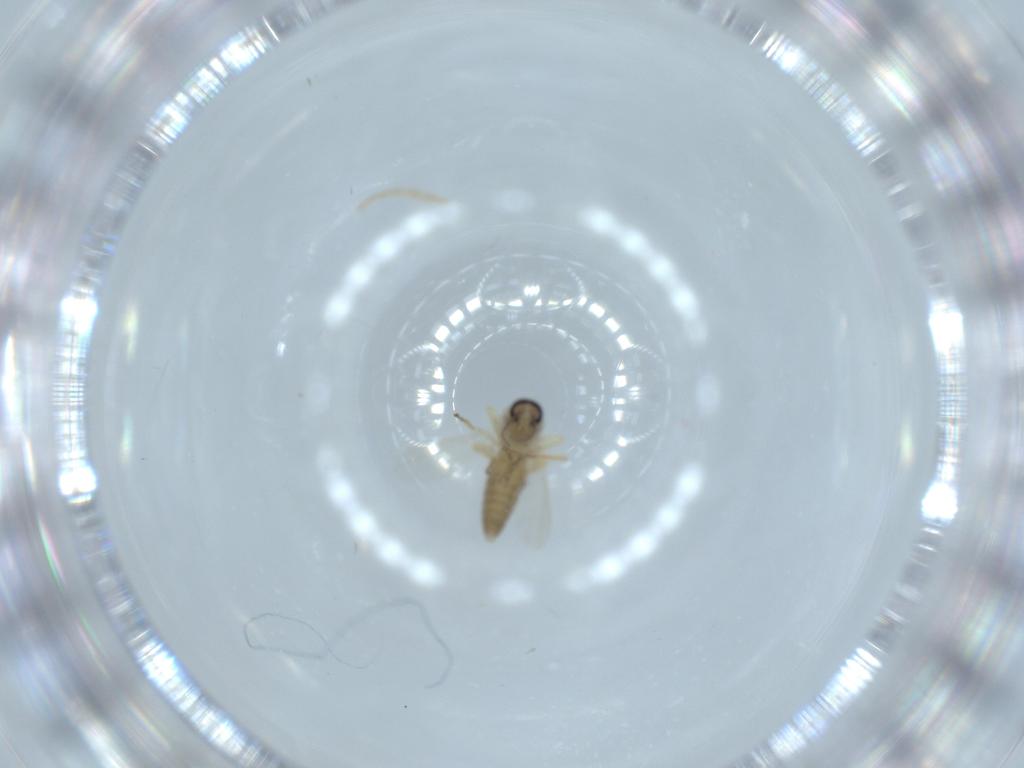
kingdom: Animalia
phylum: Arthropoda
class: Insecta
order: Diptera
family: Ceratopogonidae
